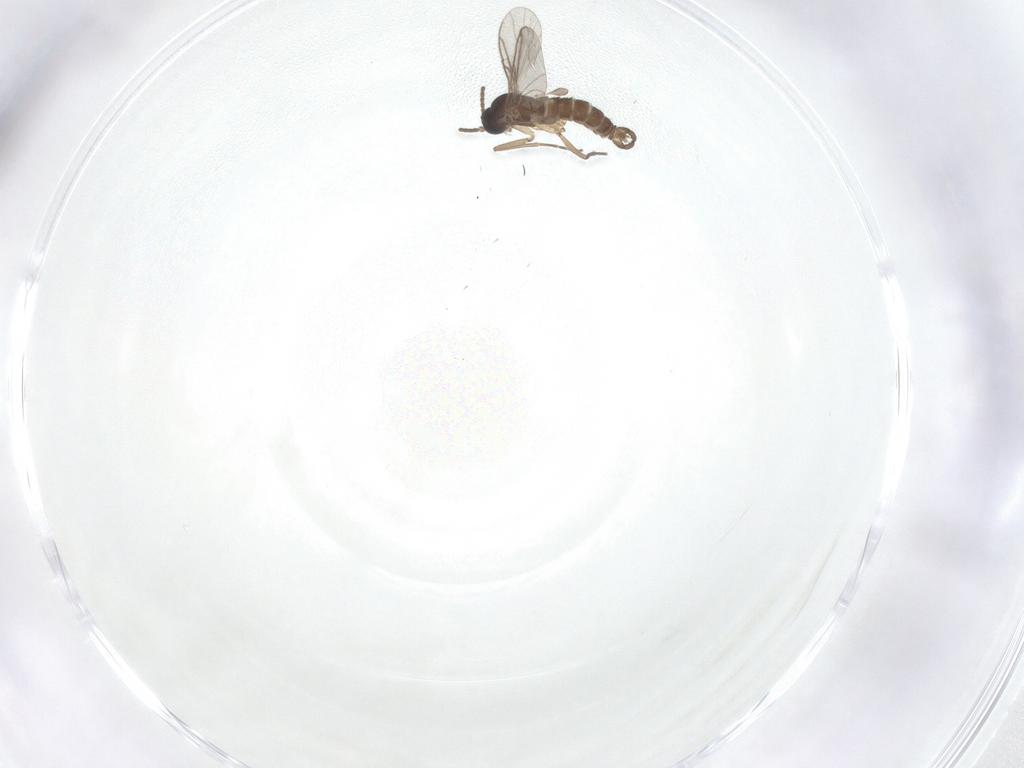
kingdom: Animalia
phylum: Arthropoda
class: Insecta
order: Diptera
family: Sciaridae
